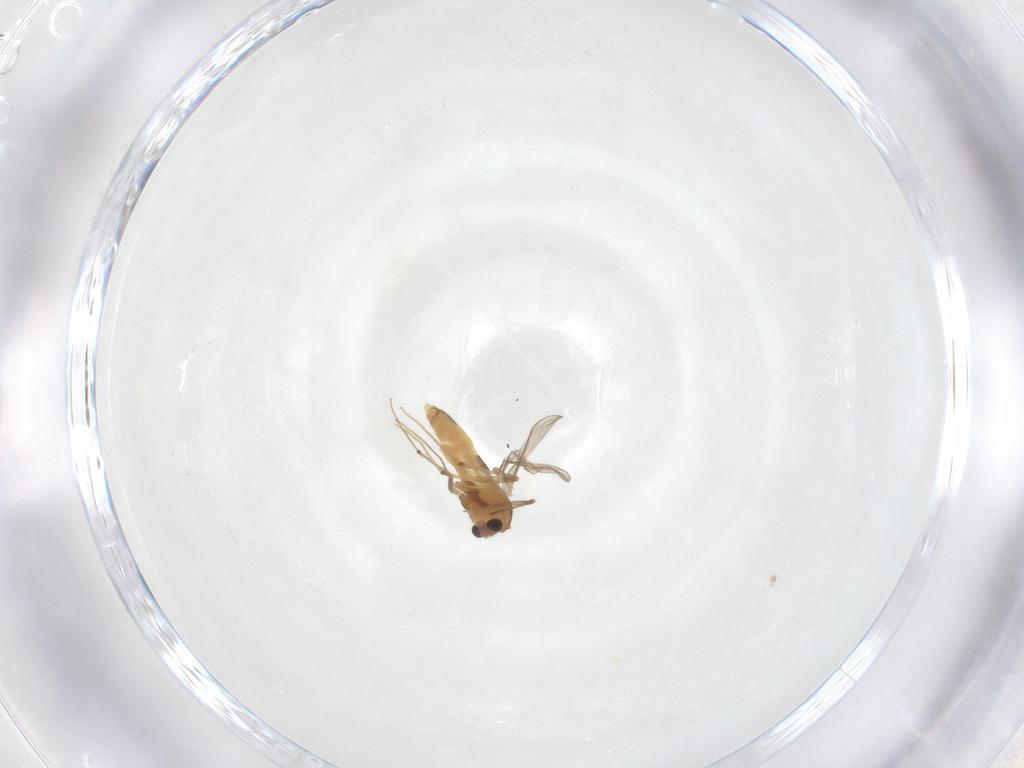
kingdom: Animalia
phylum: Arthropoda
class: Insecta
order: Diptera
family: Chironomidae
